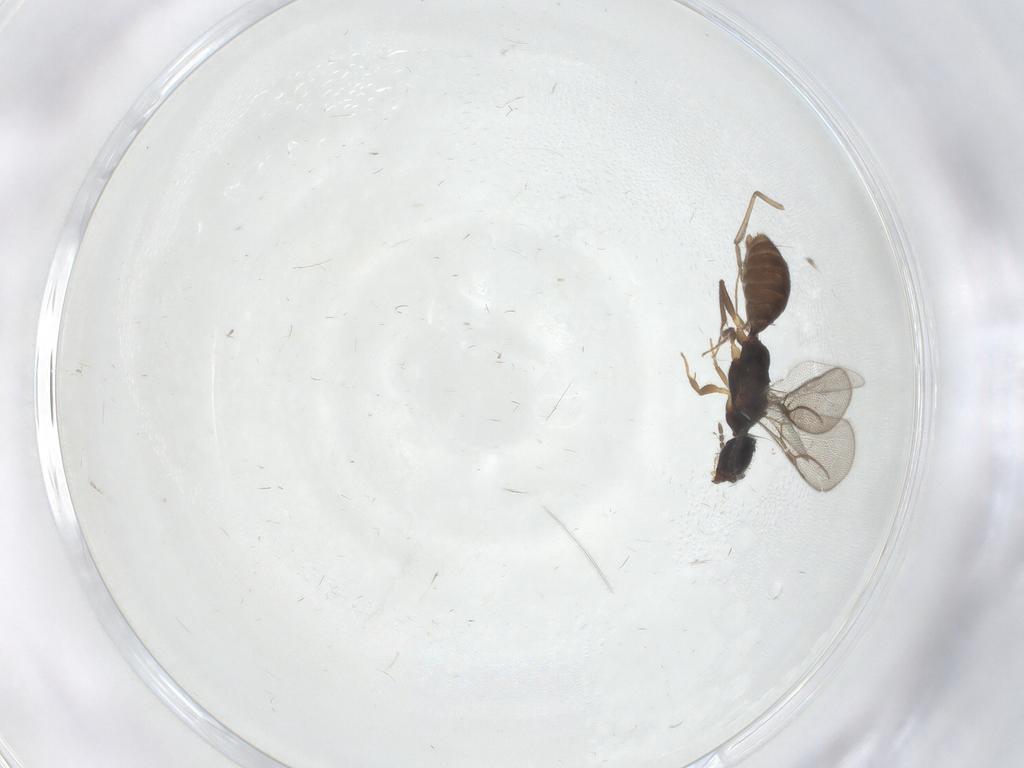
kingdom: Animalia
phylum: Arthropoda
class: Insecta
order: Hymenoptera
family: Bethylidae
